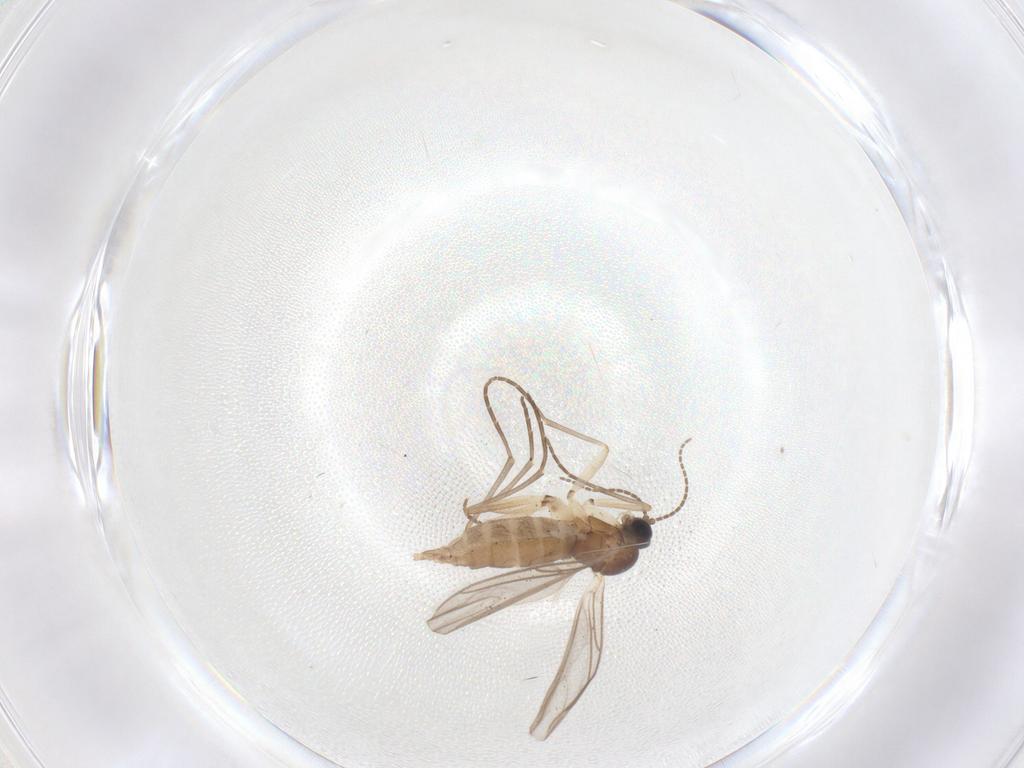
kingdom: Animalia
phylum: Arthropoda
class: Insecta
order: Diptera
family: Sciaridae
